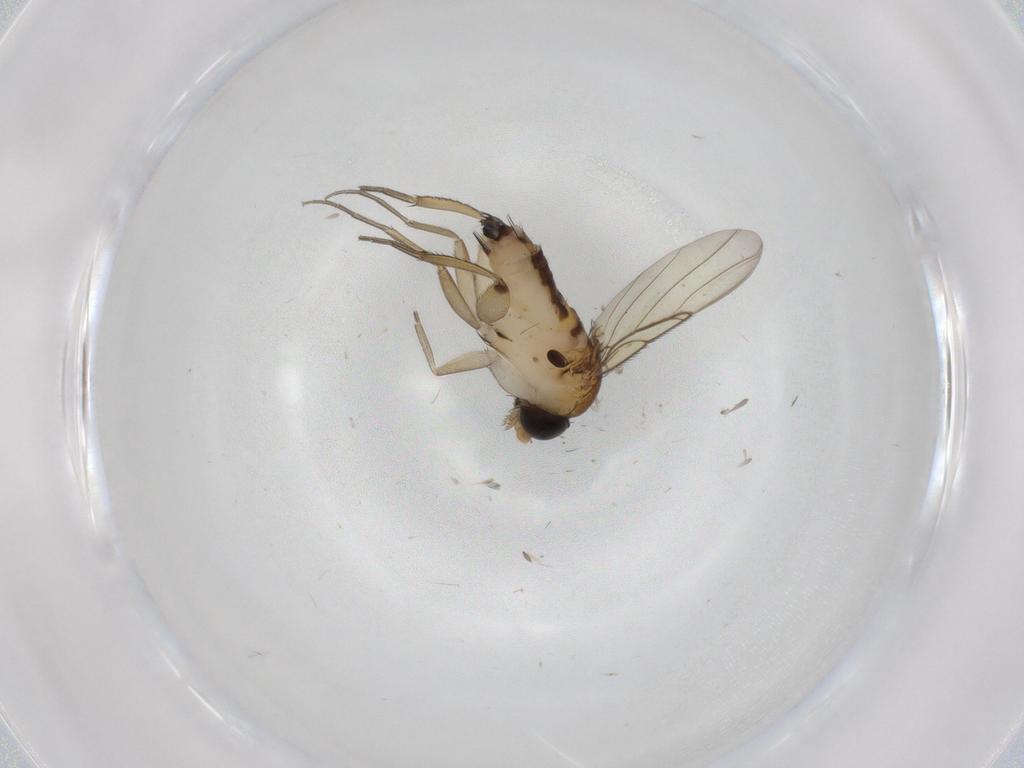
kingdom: Animalia
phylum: Arthropoda
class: Insecta
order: Diptera
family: Phoridae
